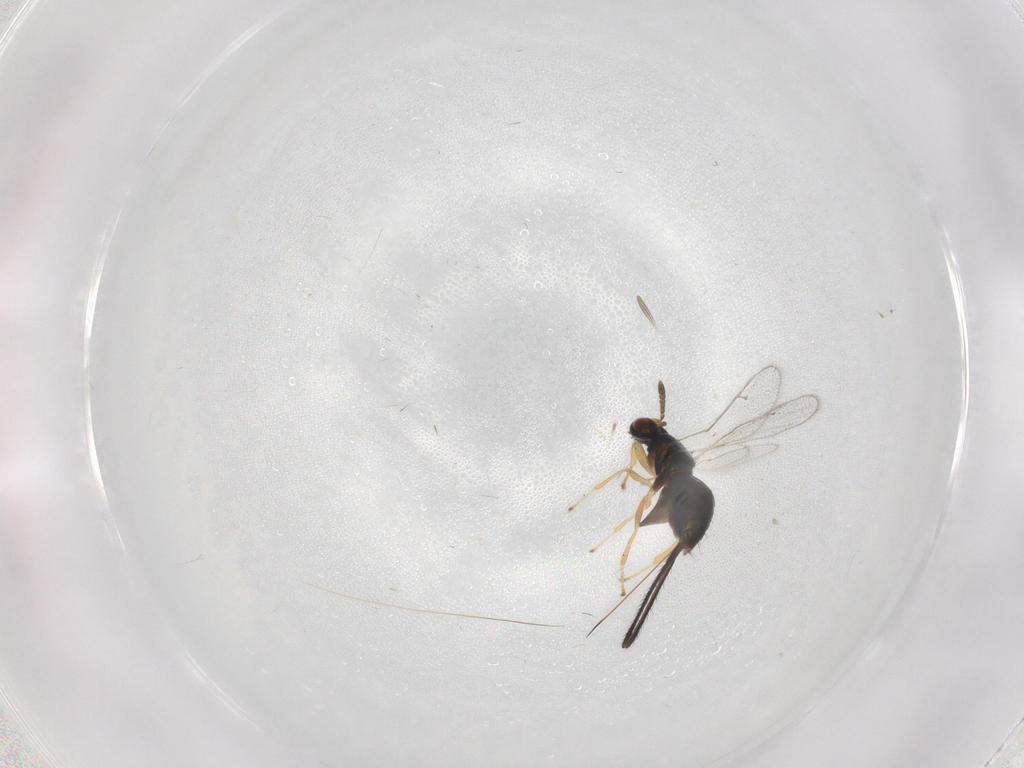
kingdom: Animalia
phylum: Arthropoda
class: Insecta
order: Hymenoptera
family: Torymidae
